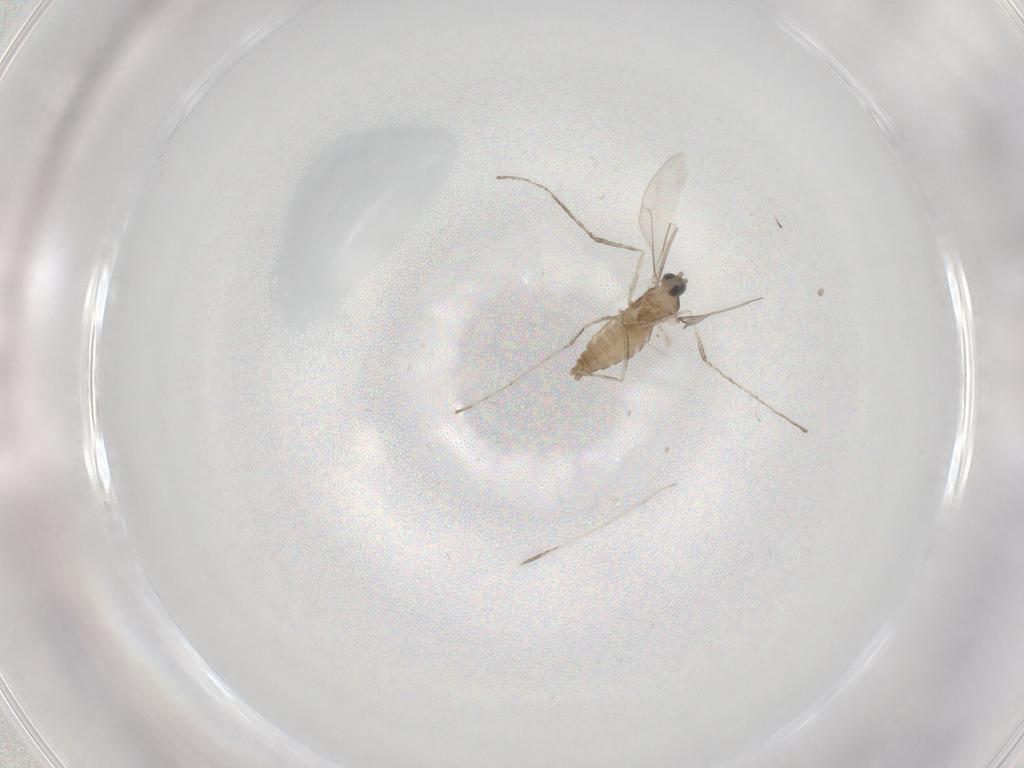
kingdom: Animalia
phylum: Arthropoda
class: Insecta
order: Diptera
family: Cecidomyiidae
